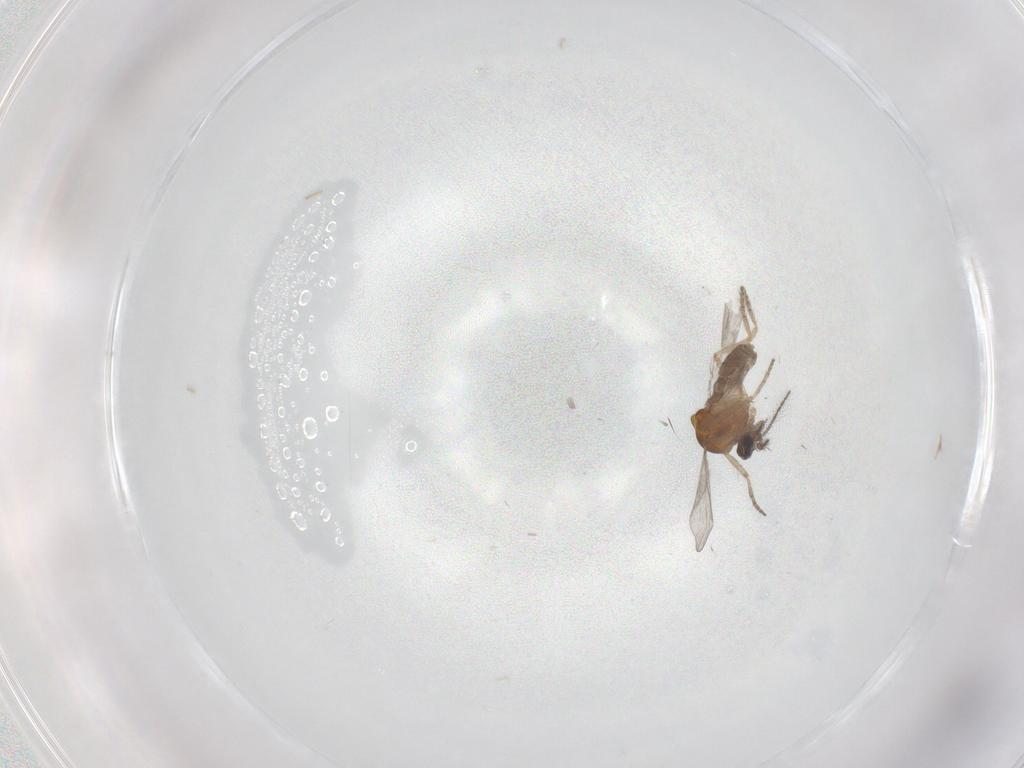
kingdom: Animalia
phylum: Arthropoda
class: Insecta
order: Diptera
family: Ceratopogonidae
